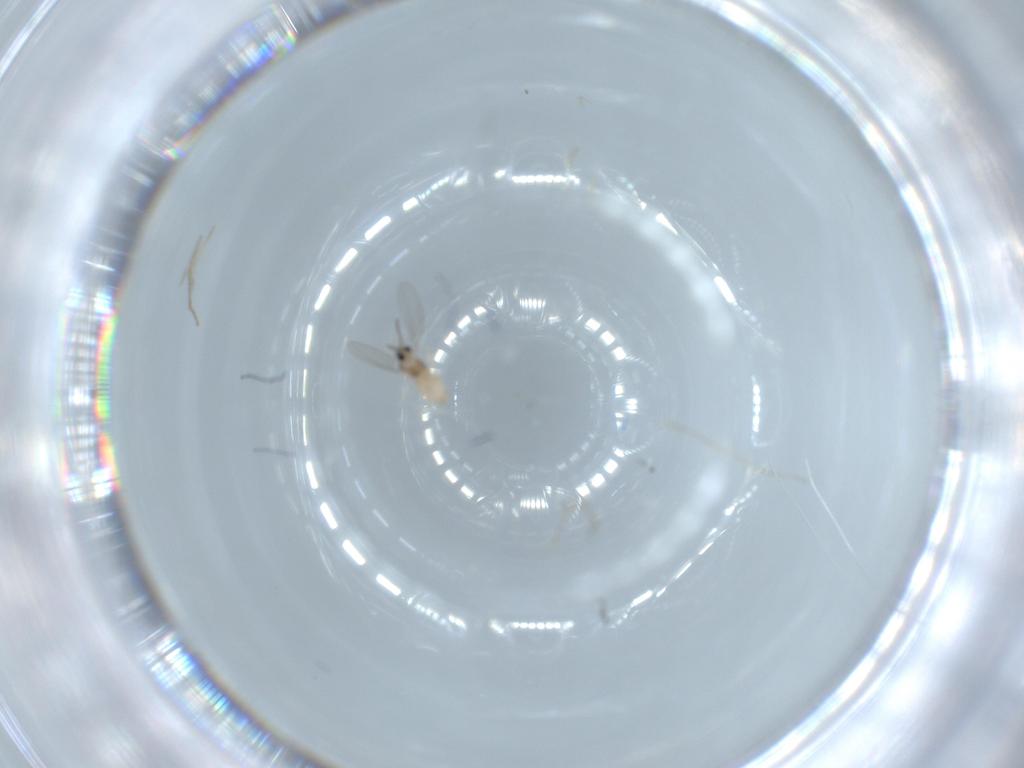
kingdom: Animalia
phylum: Arthropoda
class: Insecta
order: Diptera
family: Cecidomyiidae
